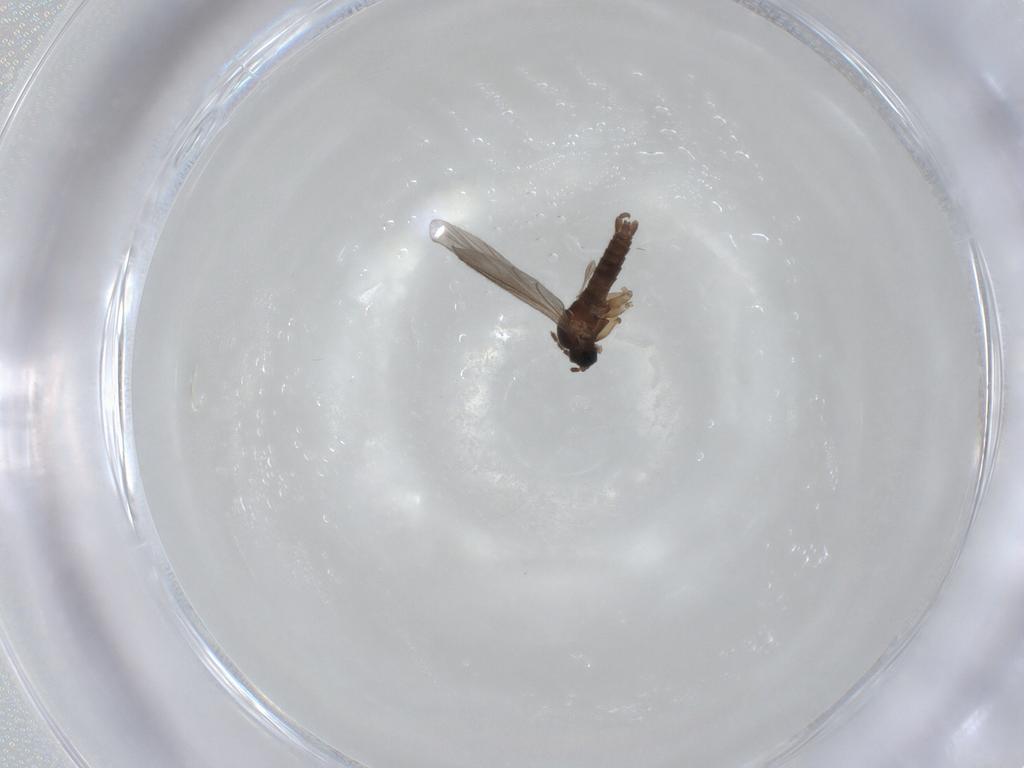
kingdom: Animalia
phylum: Arthropoda
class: Insecta
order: Diptera
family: Sciaridae
